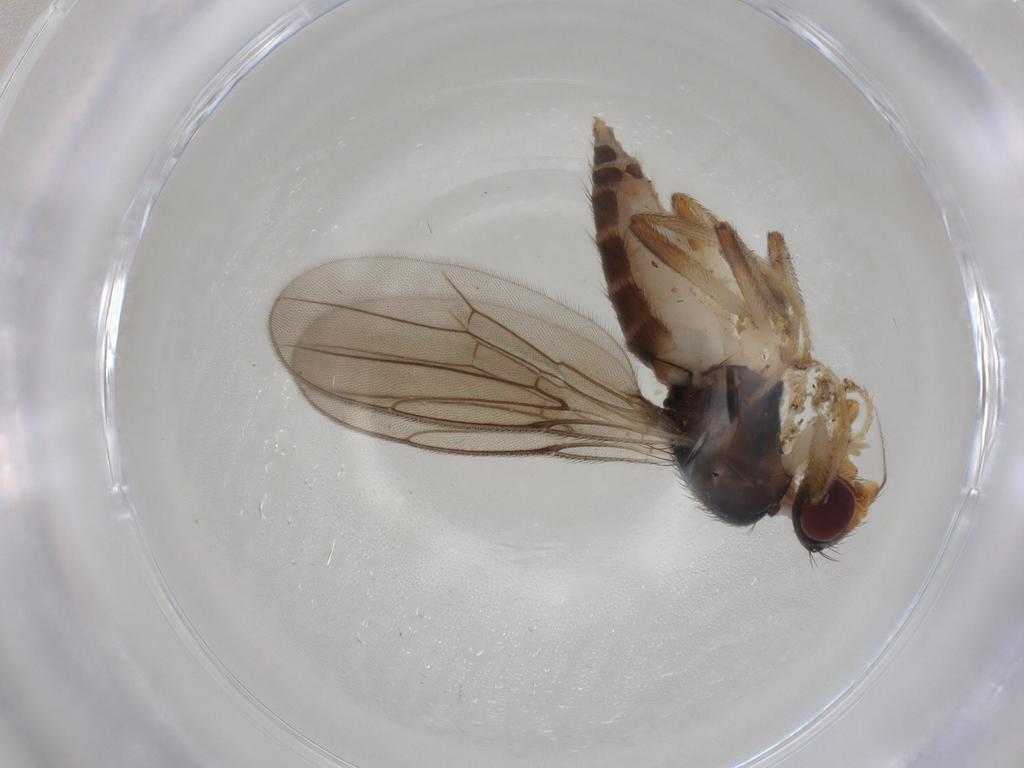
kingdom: Animalia
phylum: Arthropoda
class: Insecta
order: Diptera
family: Chloropidae
